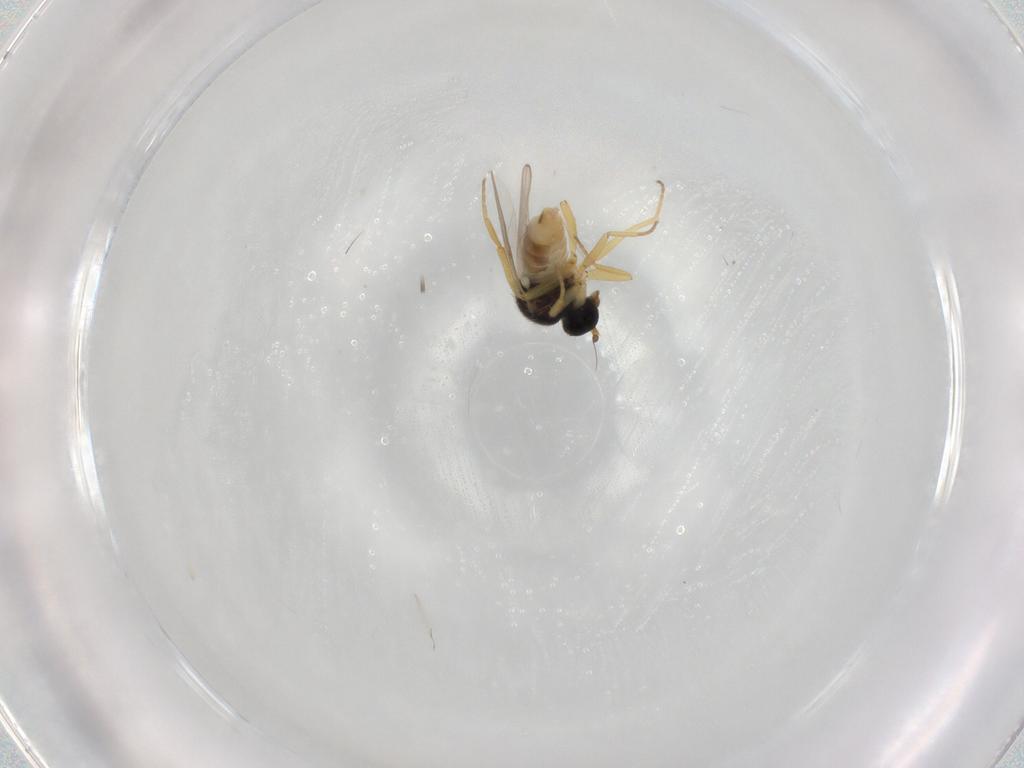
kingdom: Animalia
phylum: Arthropoda
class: Insecta
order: Diptera
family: Hybotidae
